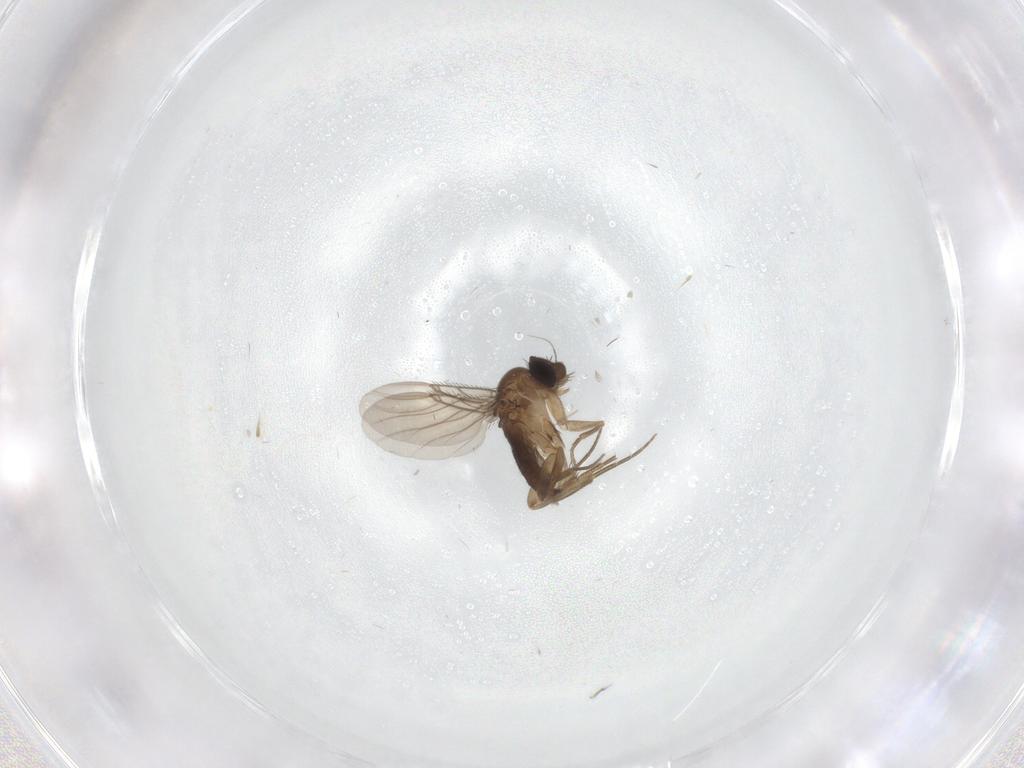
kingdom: Animalia
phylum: Arthropoda
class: Insecta
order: Diptera
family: Phoridae
